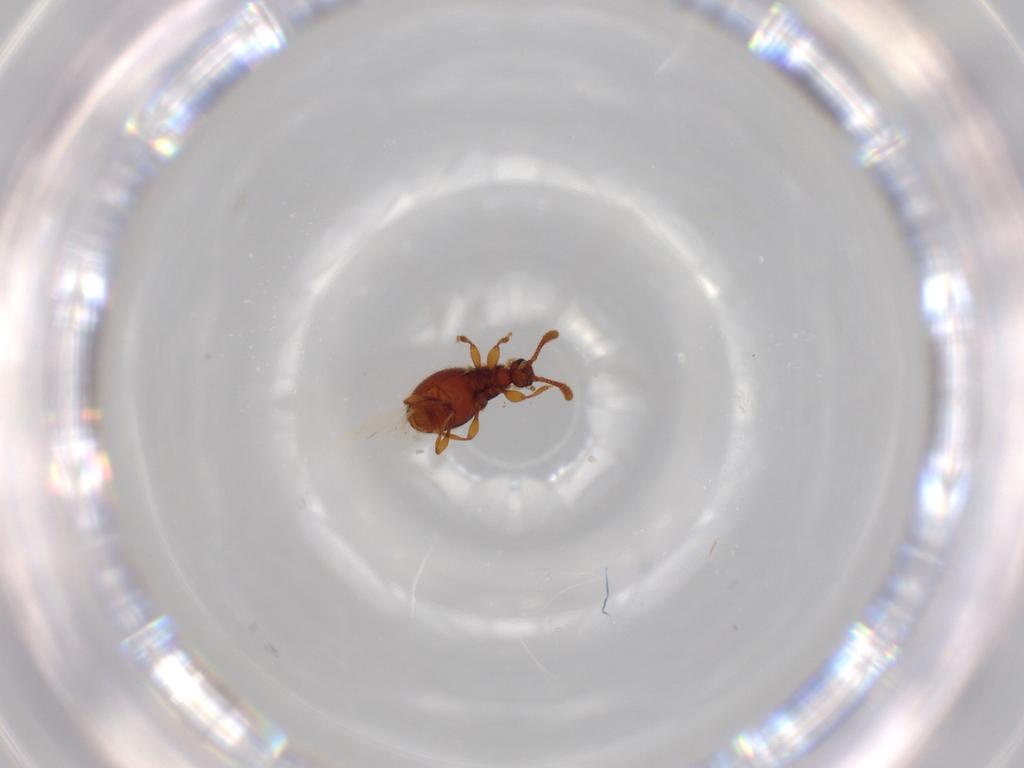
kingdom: Animalia
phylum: Arthropoda
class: Insecta
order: Coleoptera
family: Staphylinidae
